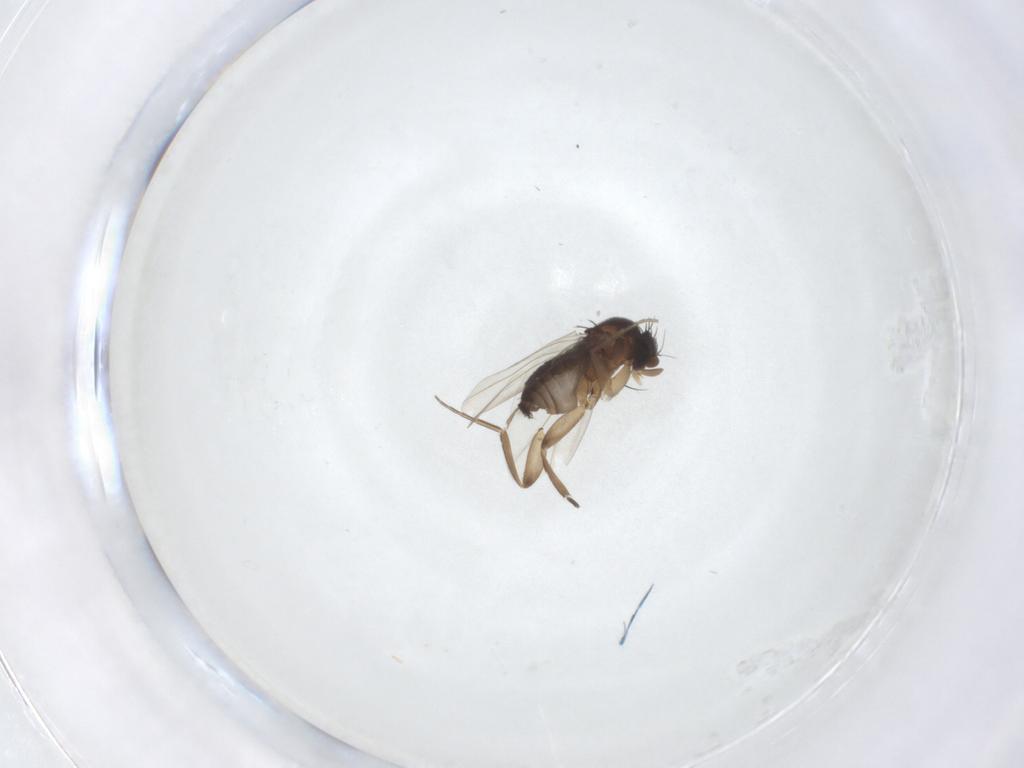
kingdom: Animalia
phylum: Arthropoda
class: Insecta
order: Diptera
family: Phoridae
